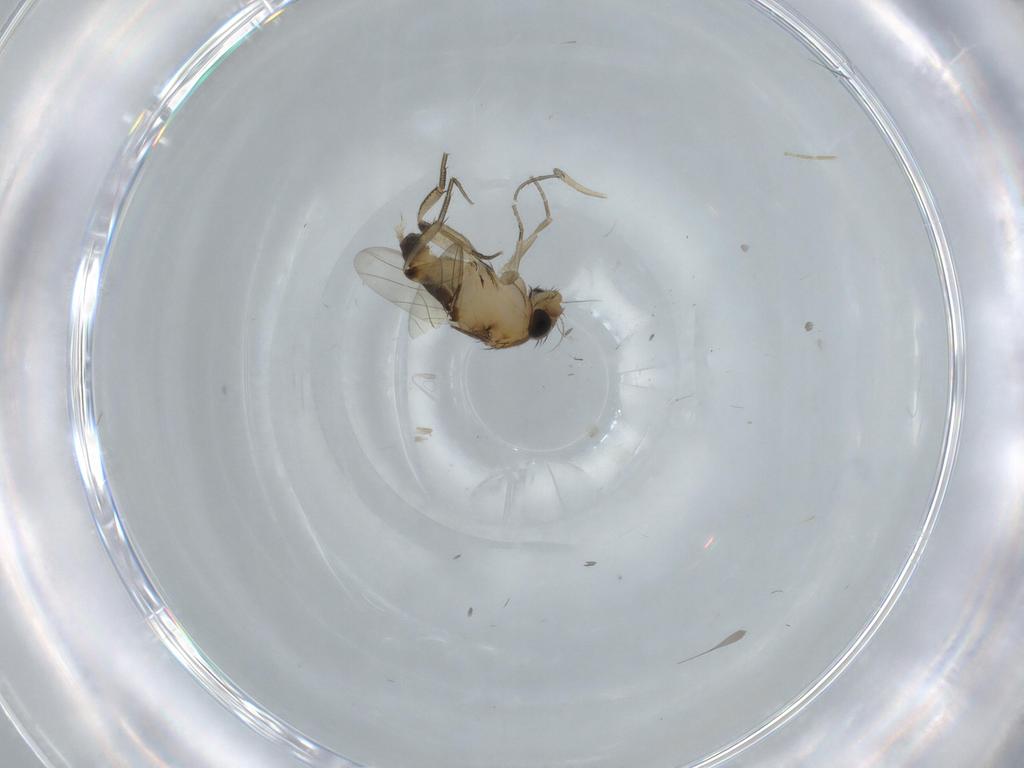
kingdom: Animalia
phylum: Arthropoda
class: Insecta
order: Diptera
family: Phoridae
